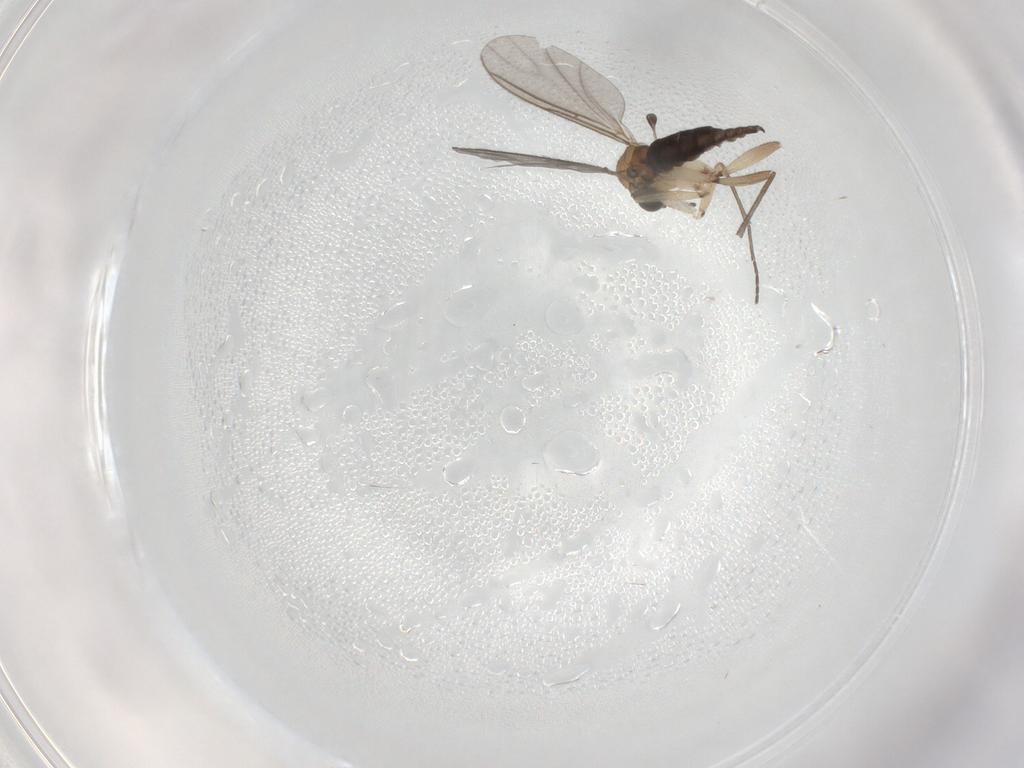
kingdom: Animalia
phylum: Arthropoda
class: Insecta
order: Diptera
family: Sciaridae
